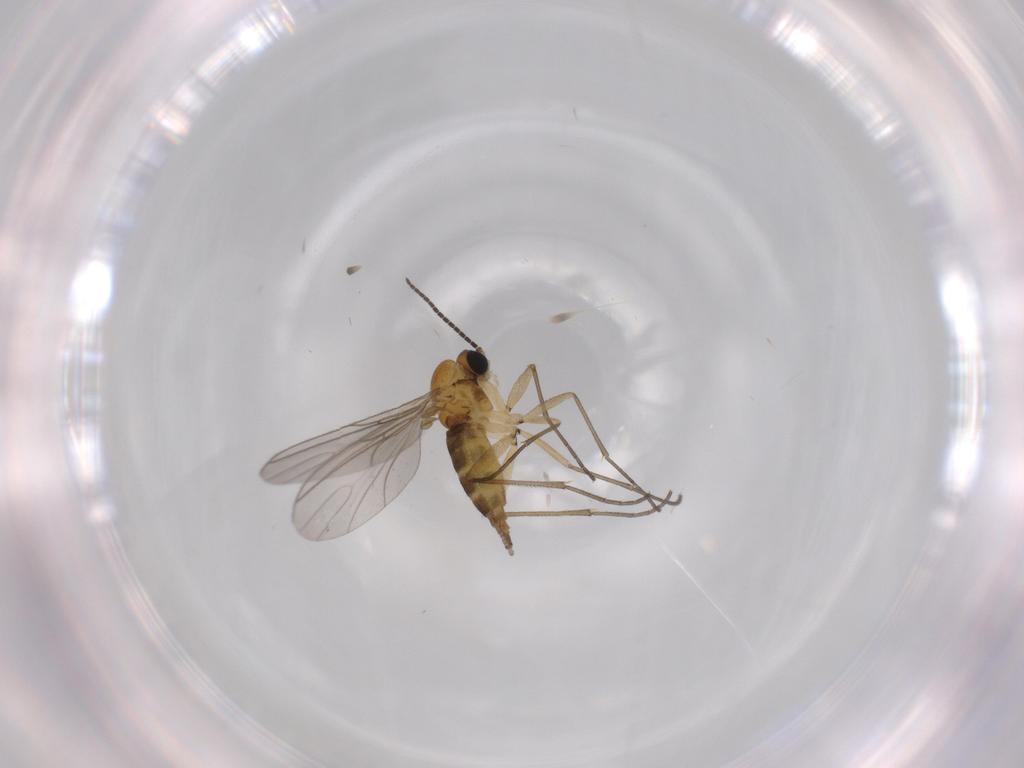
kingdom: Animalia
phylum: Arthropoda
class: Insecta
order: Diptera
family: Sciaridae
